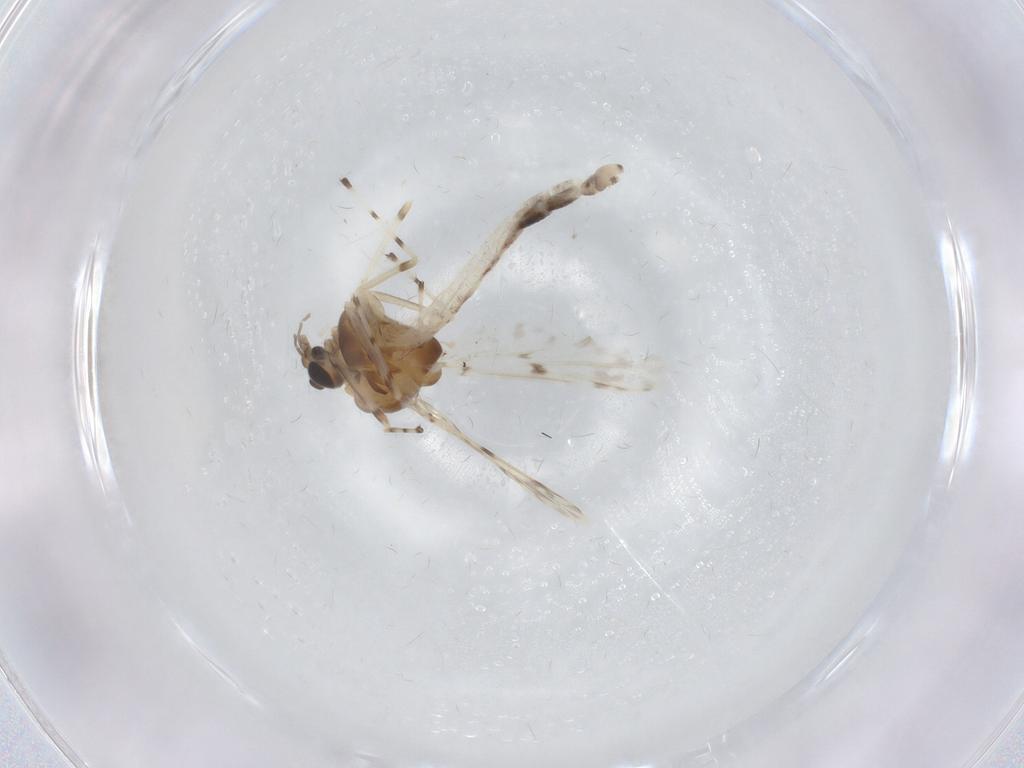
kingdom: Animalia
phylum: Arthropoda
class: Insecta
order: Diptera
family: Chironomidae
